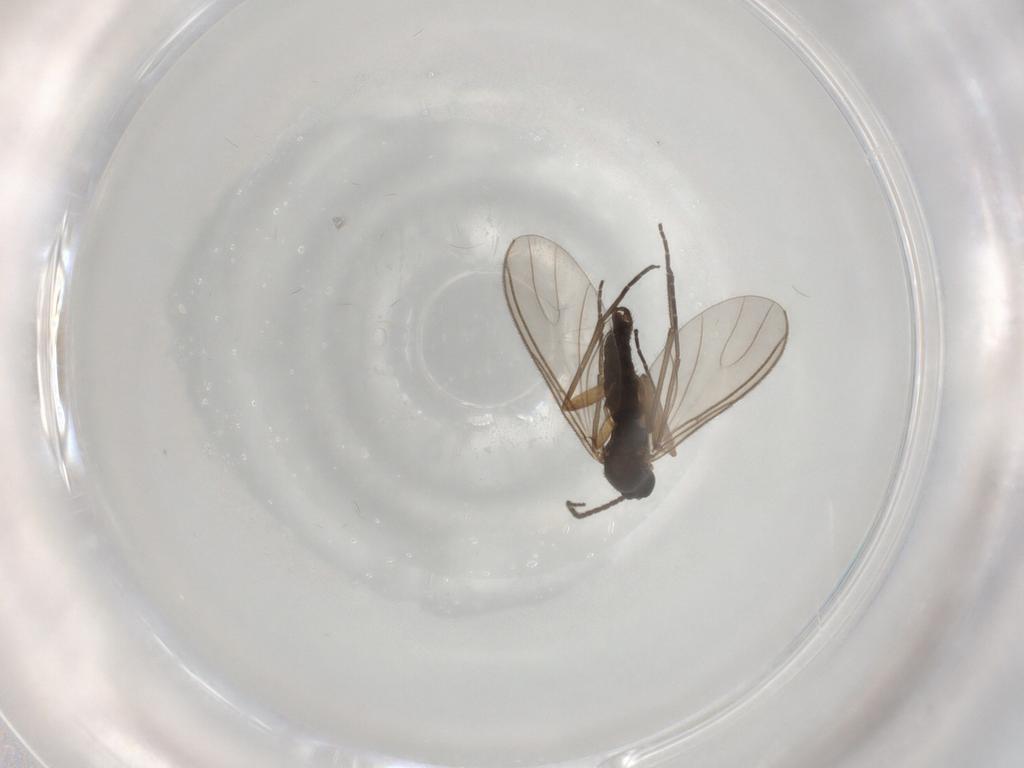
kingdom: Animalia
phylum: Arthropoda
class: Insecta
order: Diptera
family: Sciaridae
